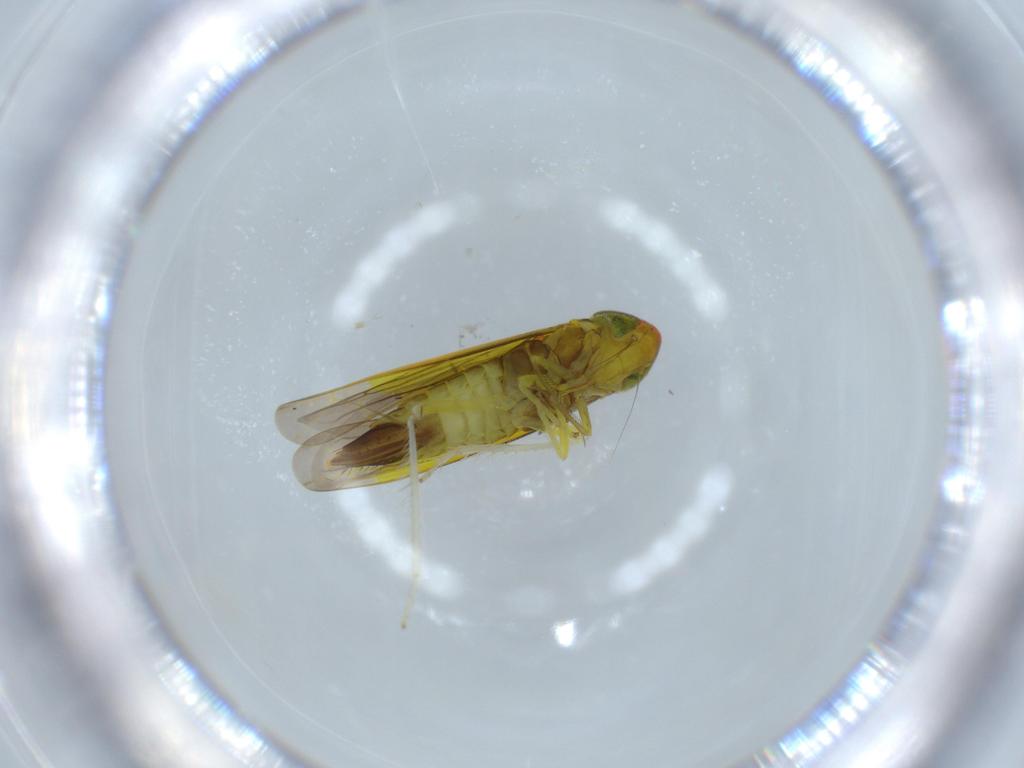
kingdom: Animalia
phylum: Arthropoda
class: Insecta
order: Hemiptera
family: Cicadellidae
